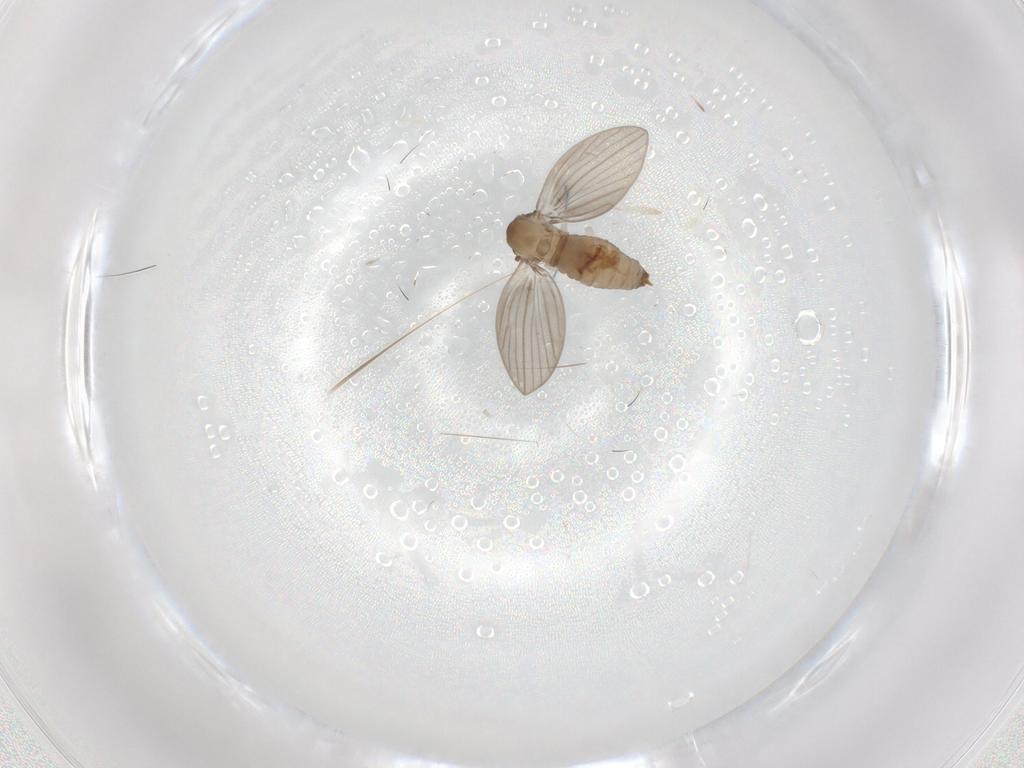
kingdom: Animalia
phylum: Arthropoda
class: Insecta
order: Diptera
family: Psychodidae
